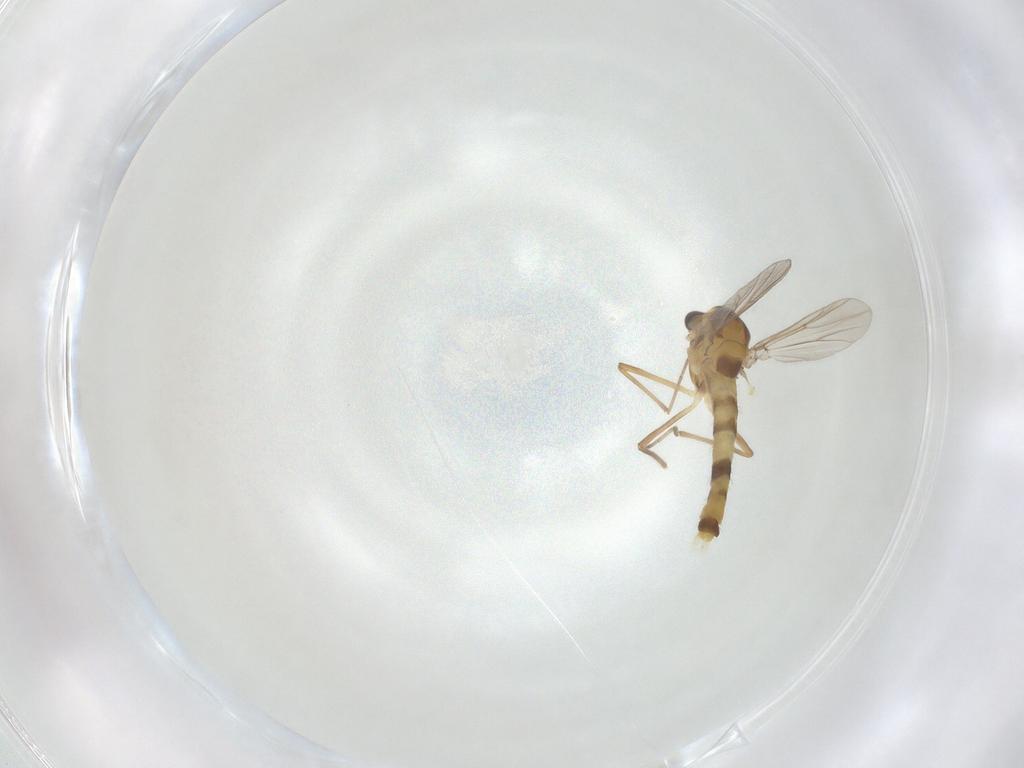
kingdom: Animalia
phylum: Arthropoda
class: Insecta
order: Diptera
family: Chironomidae
